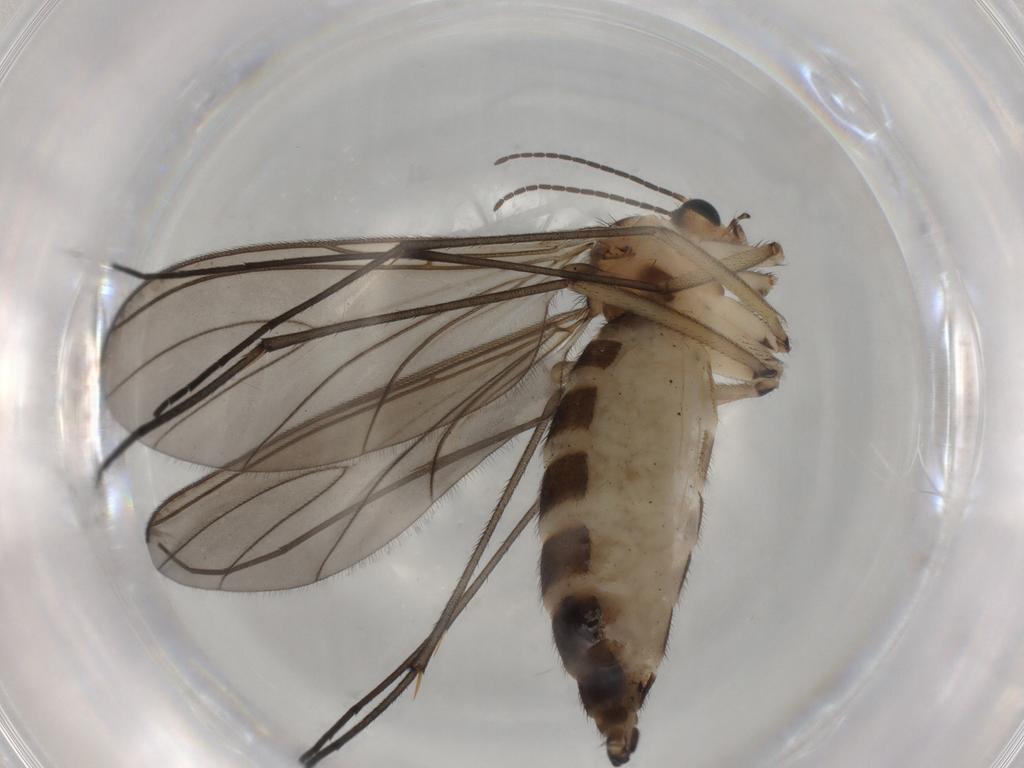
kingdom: Animalia
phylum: Arthropoda
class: Insecta
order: Diptera
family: Sciaridae
